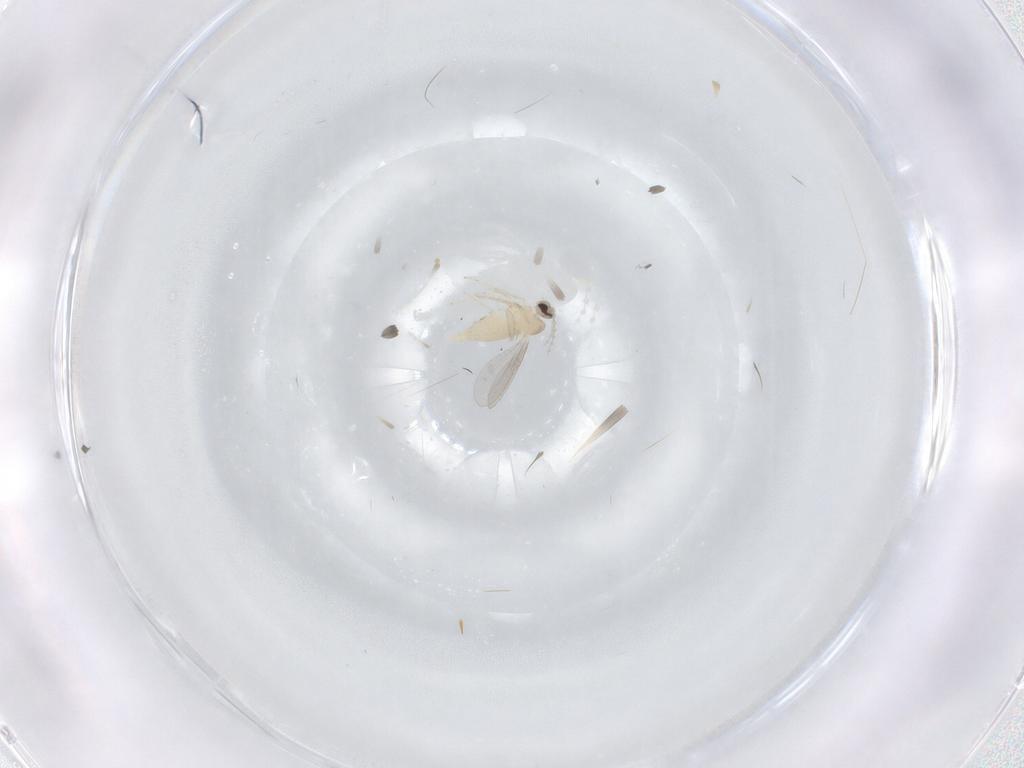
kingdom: Animalia
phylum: Arthropoda
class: Insecta
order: Diptera
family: Cecidomyiidae
